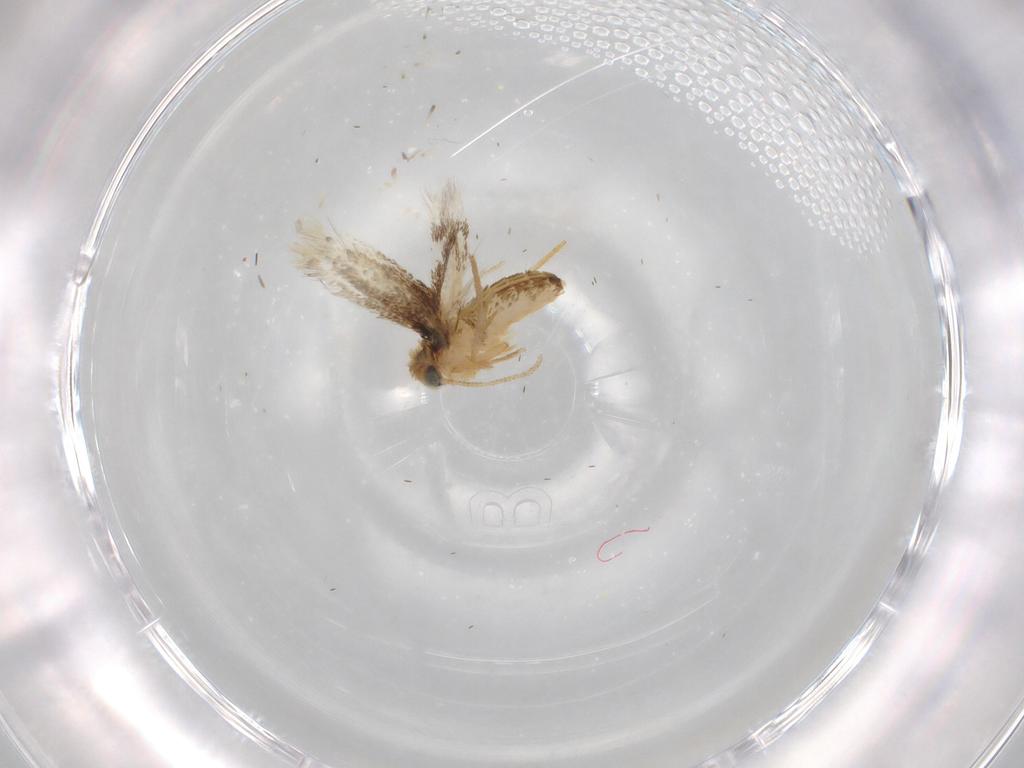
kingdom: Animalia
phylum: Arthropoda
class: Insecta
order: Lepidoptera
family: Nepticulidae
